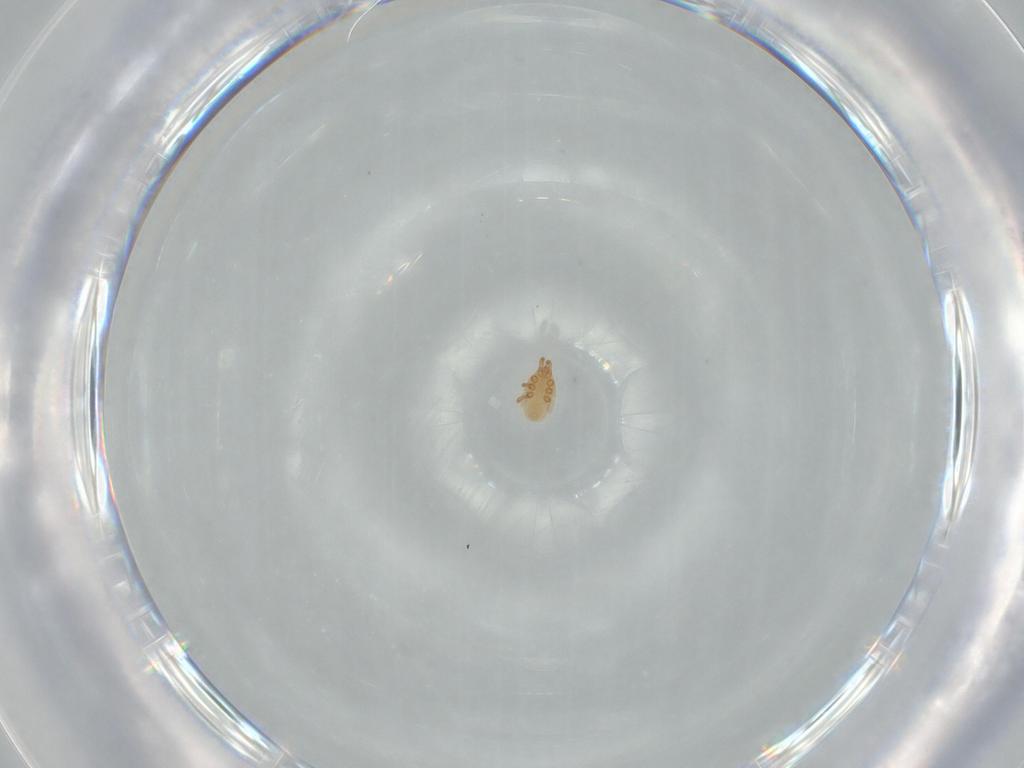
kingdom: Animalia
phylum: Arthropoda
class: Arachnida
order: Mesostigmata
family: Dinychidae
